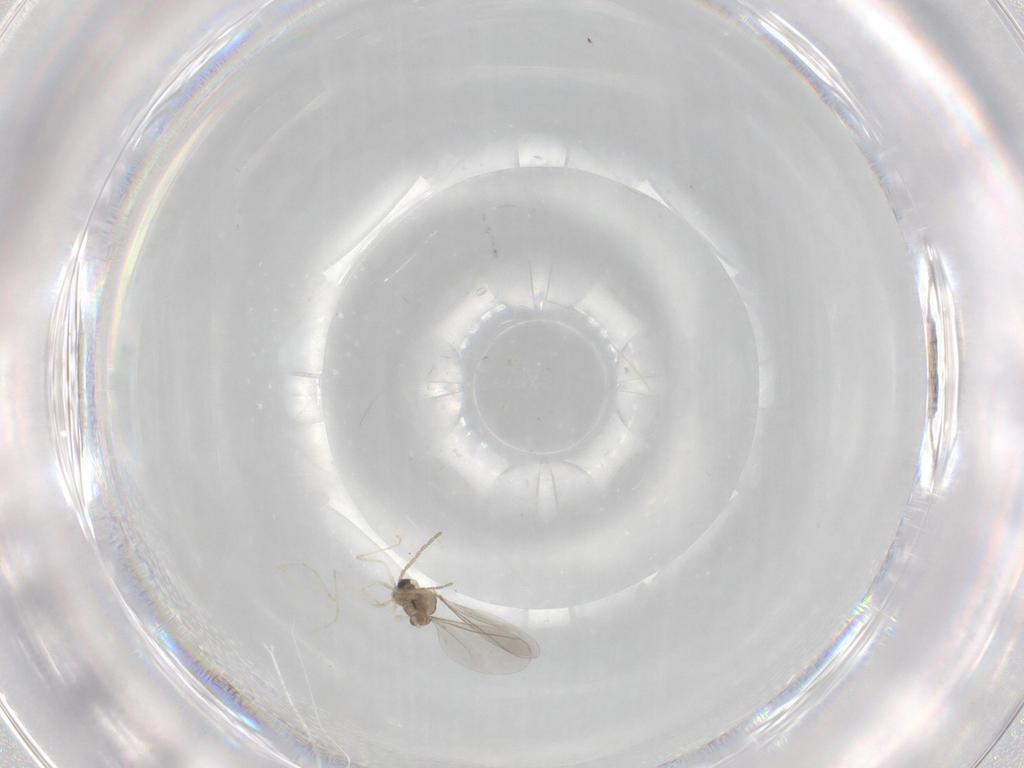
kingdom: Animalia
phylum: Arthropoda
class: Insecta
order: Diptera
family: Cecidomyiidae
